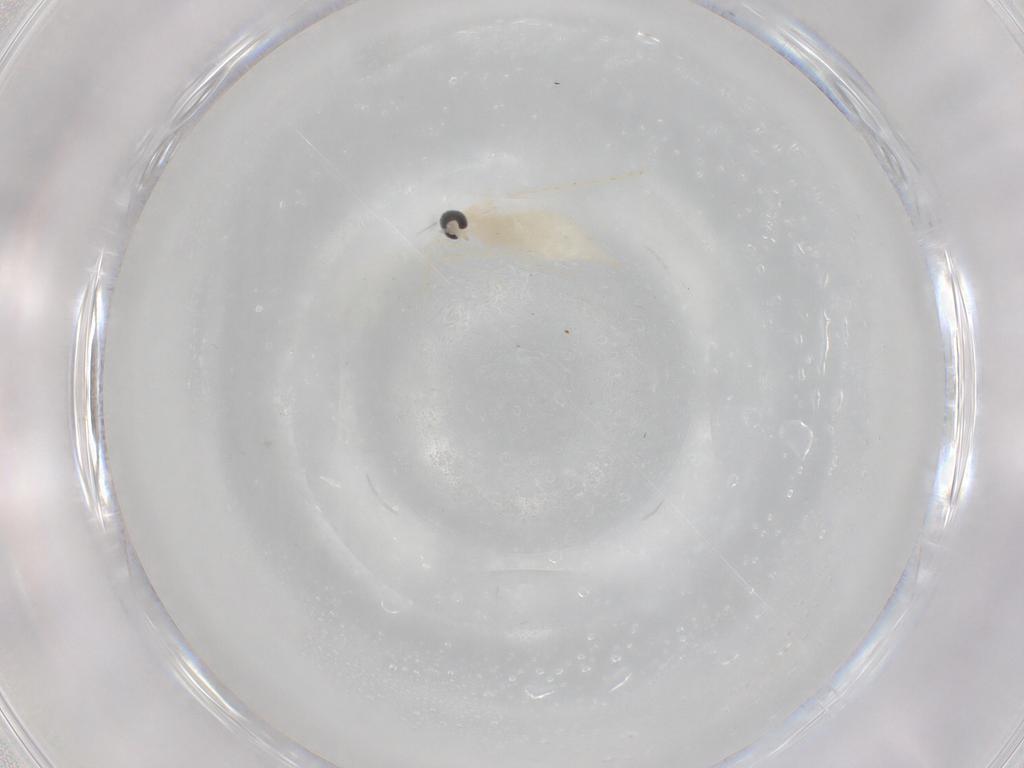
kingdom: Animalia
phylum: Arthropoda
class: Insecta
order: Diptera
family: Cecidomyiidae
